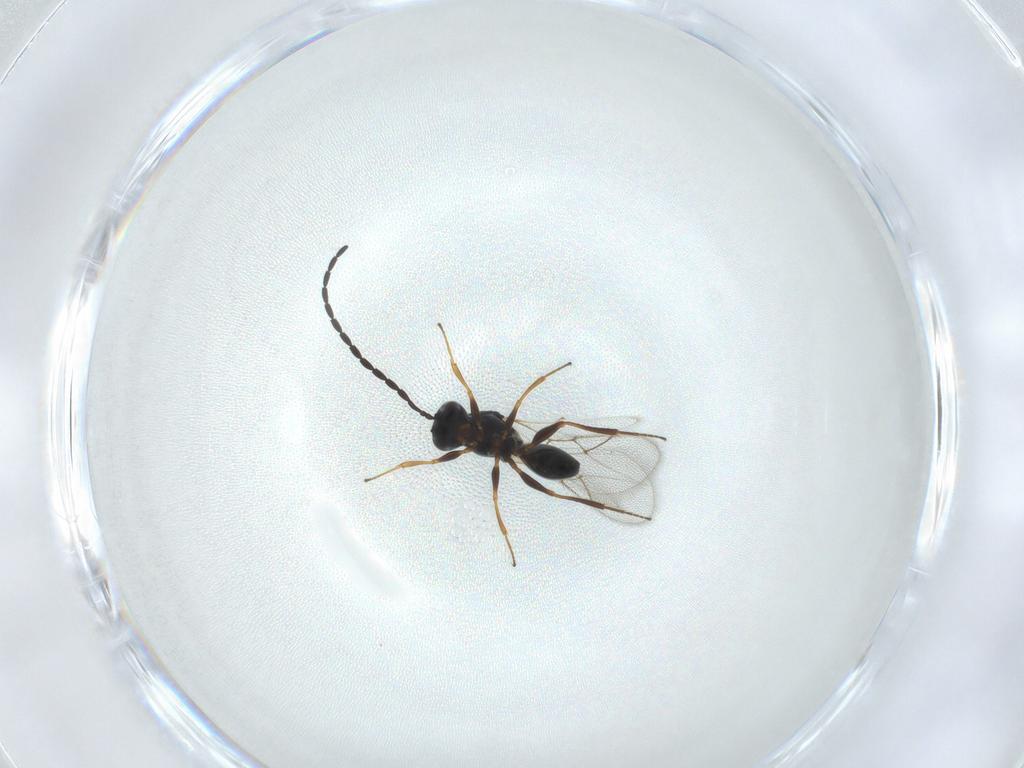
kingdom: Animalia
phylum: Arthropoda
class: Insecta
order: Hymenoptera
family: Figitidae
